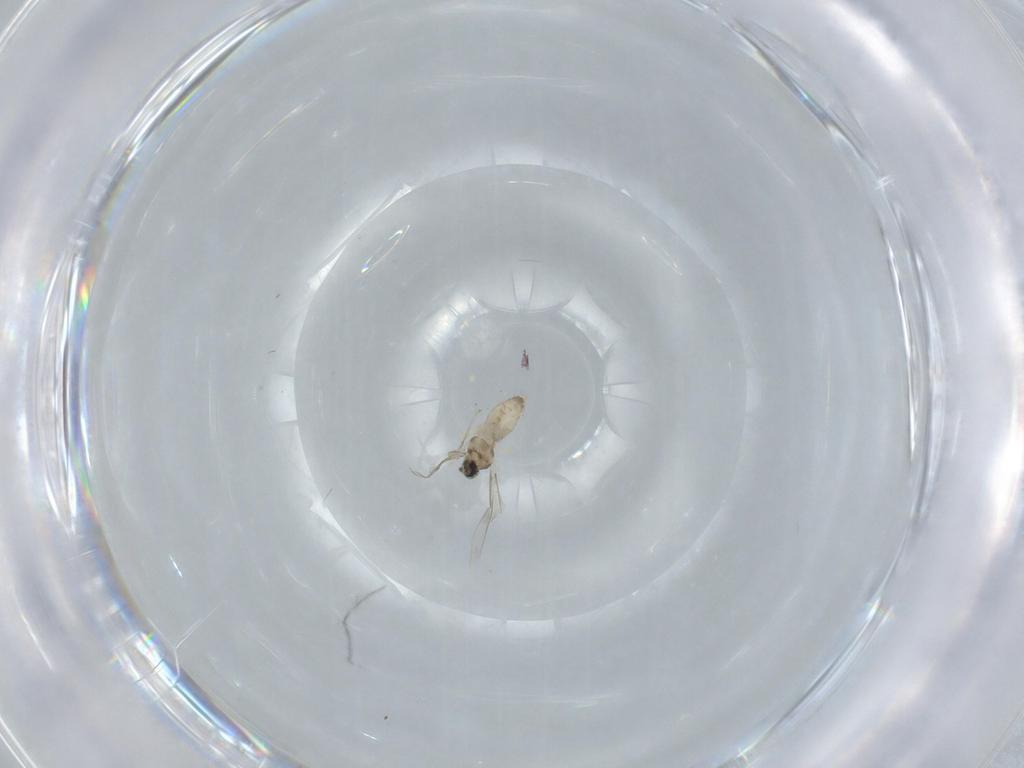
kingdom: Animalia
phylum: Arthropoda
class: Insecta
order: Diptera
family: Cecidomyiidae
